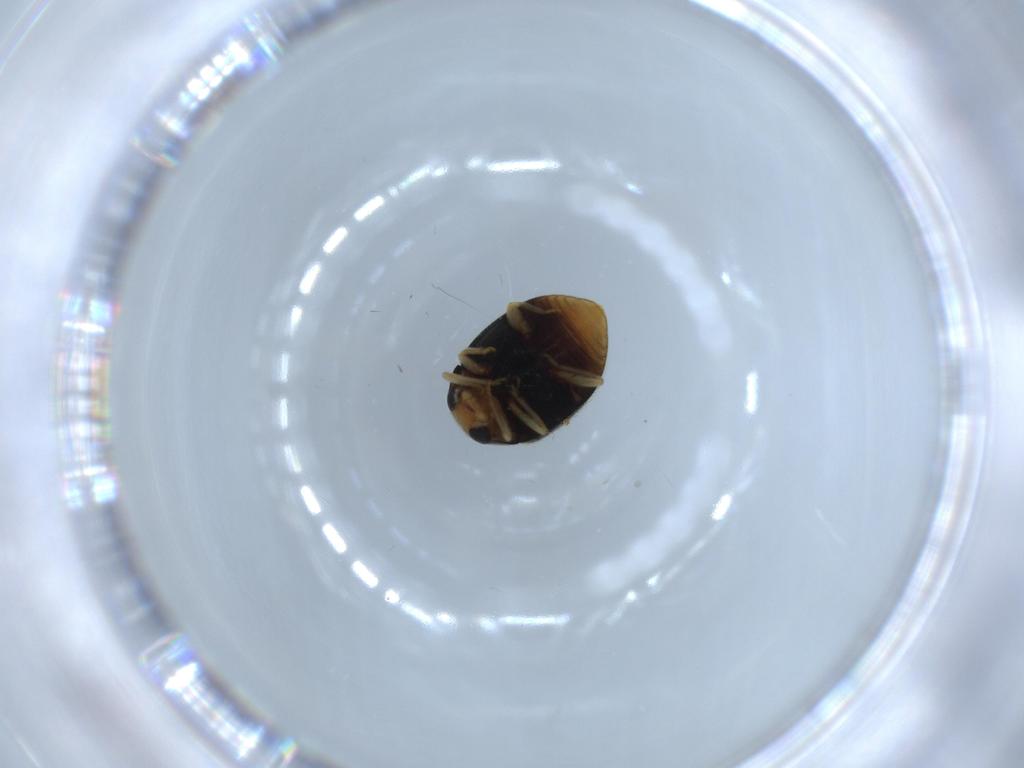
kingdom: Animalia
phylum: Arthropoda
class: Insecta
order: Coleoptera
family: Coccinellidae
